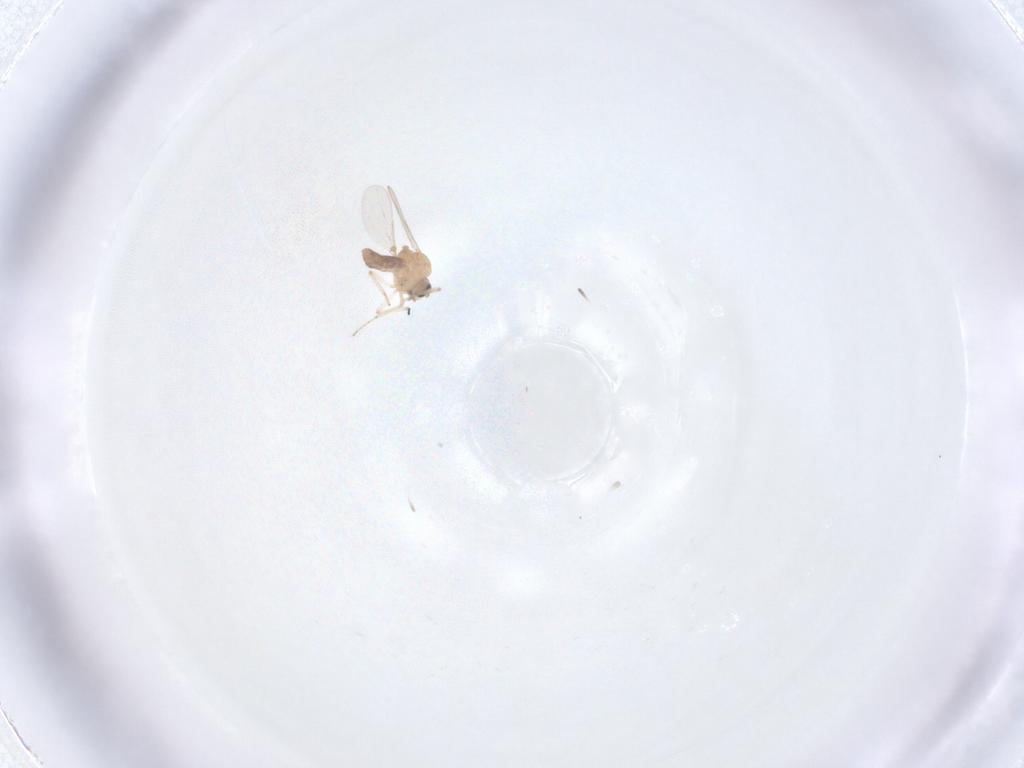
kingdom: Animalia
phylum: Arthropoda
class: Insecta
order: Diptera
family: Ceratopogonidae
